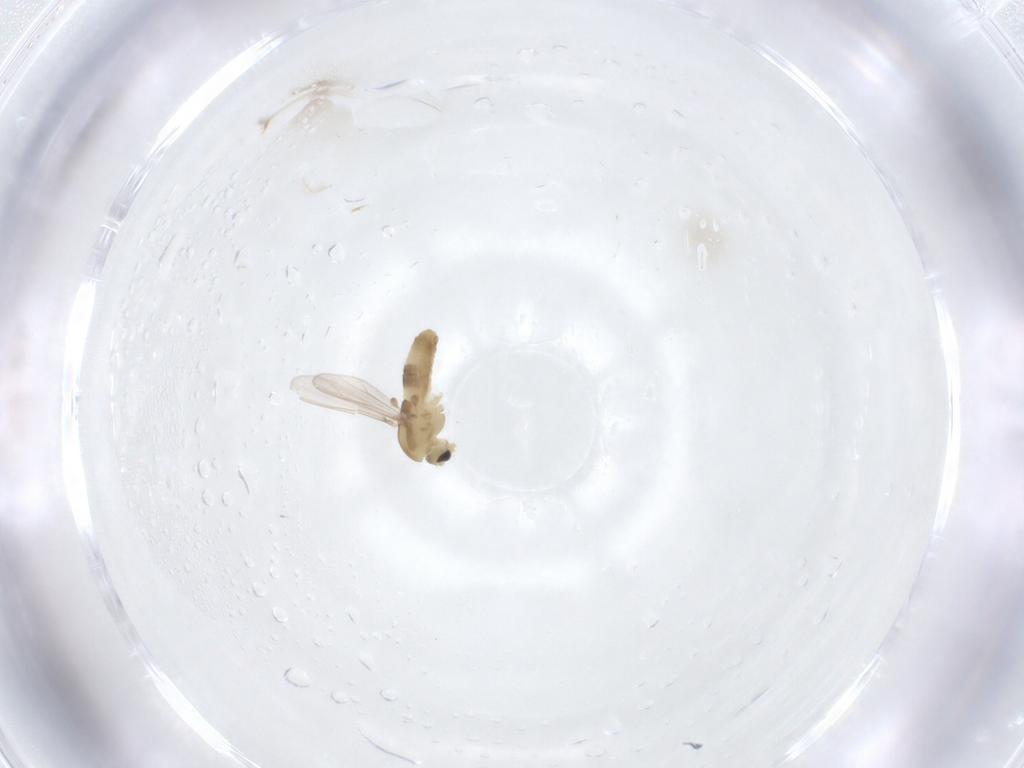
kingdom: Animalia
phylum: Arthropoda
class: Insecta
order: Diptera
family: Chironomidae
